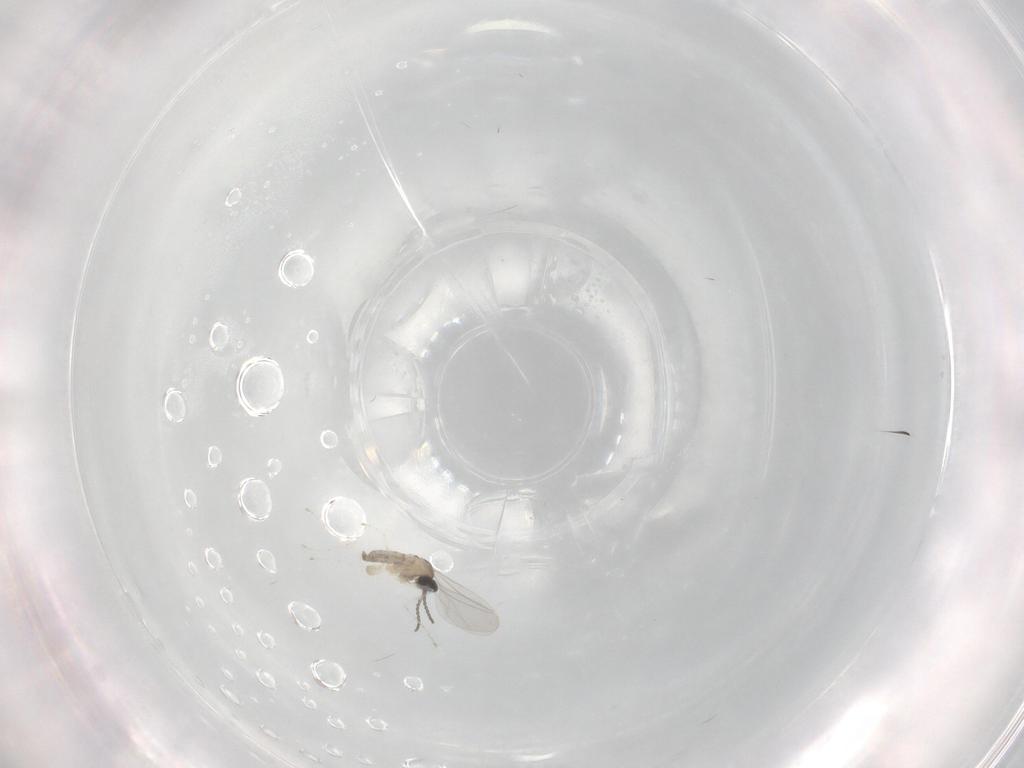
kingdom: Animalia
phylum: Arthropoda
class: Insecta
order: Diptera
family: Cecidomyiidae
